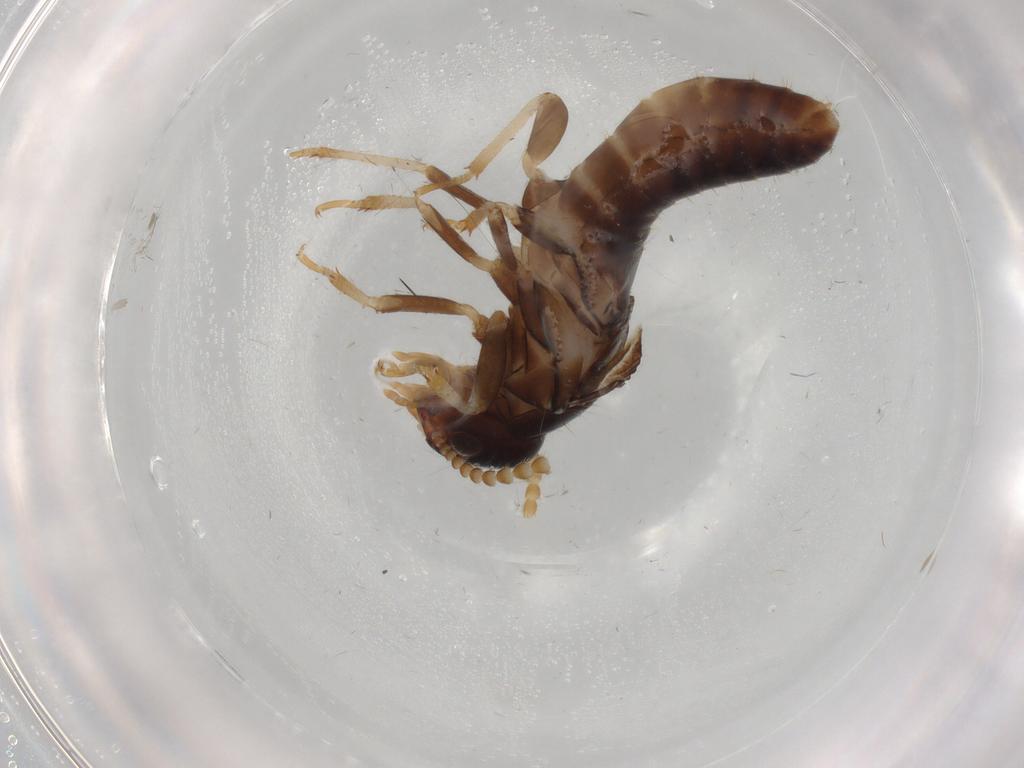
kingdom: Animalia
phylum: Arthropoda
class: Insecta
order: Blattodea
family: Kalotermitidae
